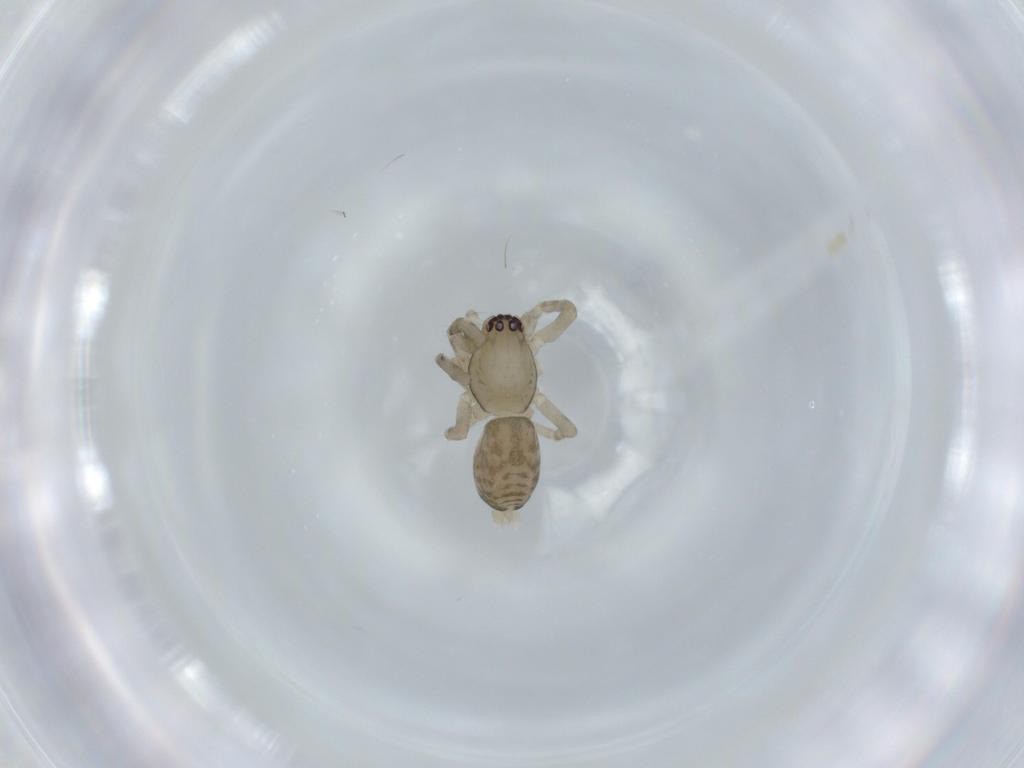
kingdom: Animalia
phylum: Arthropoda
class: Arachnida
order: Araneae
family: Clubionidae
